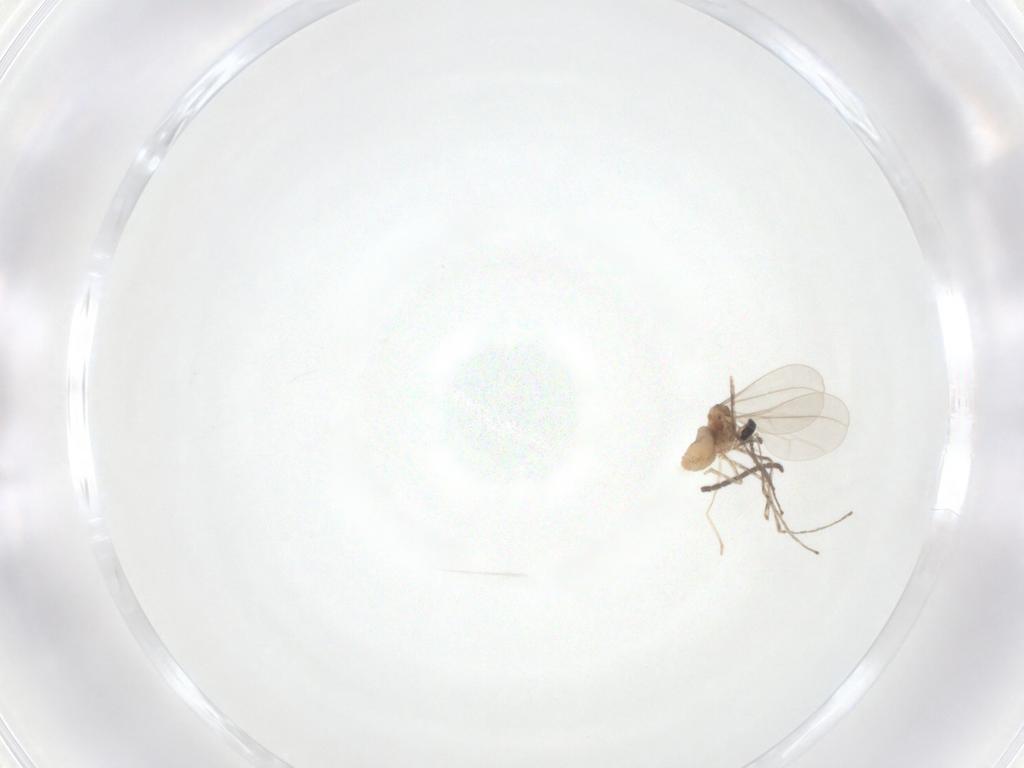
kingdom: Animalia
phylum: Arthropoda
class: Insecta
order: Diptera
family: Cecidomyiidae
